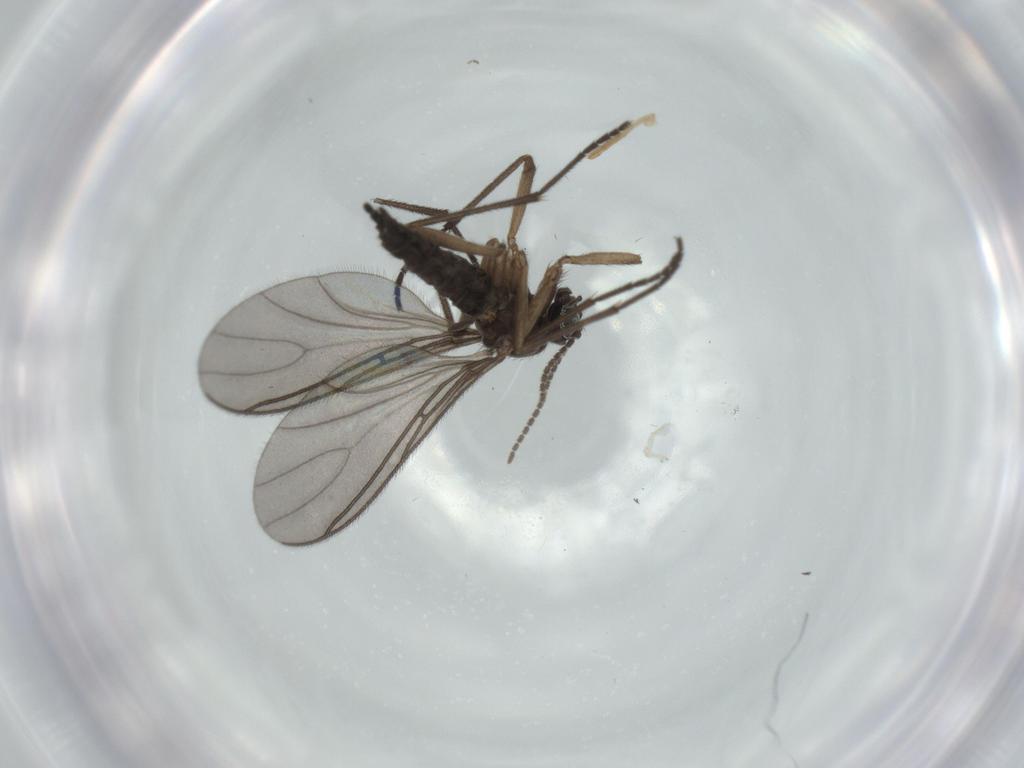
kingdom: Animalia
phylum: Arthropoda
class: Insecta
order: Diptera
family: Sciaridae
